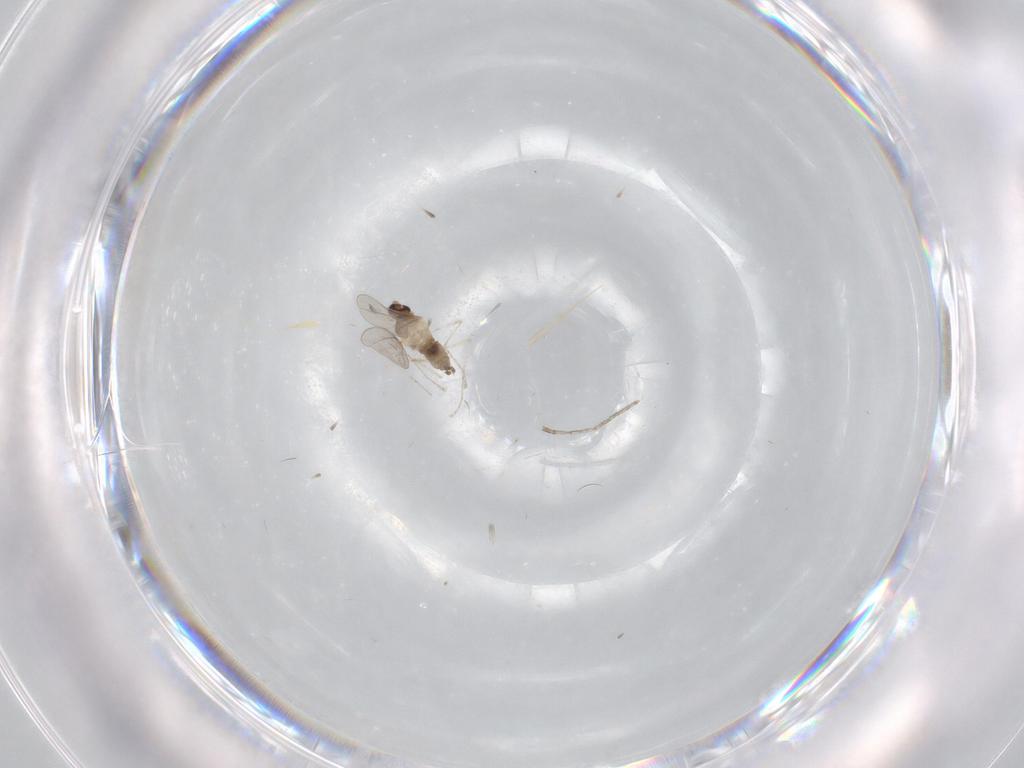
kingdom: Animalia
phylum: Arthropoda
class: Insecta
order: Diptera
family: Cecidomyiidae
